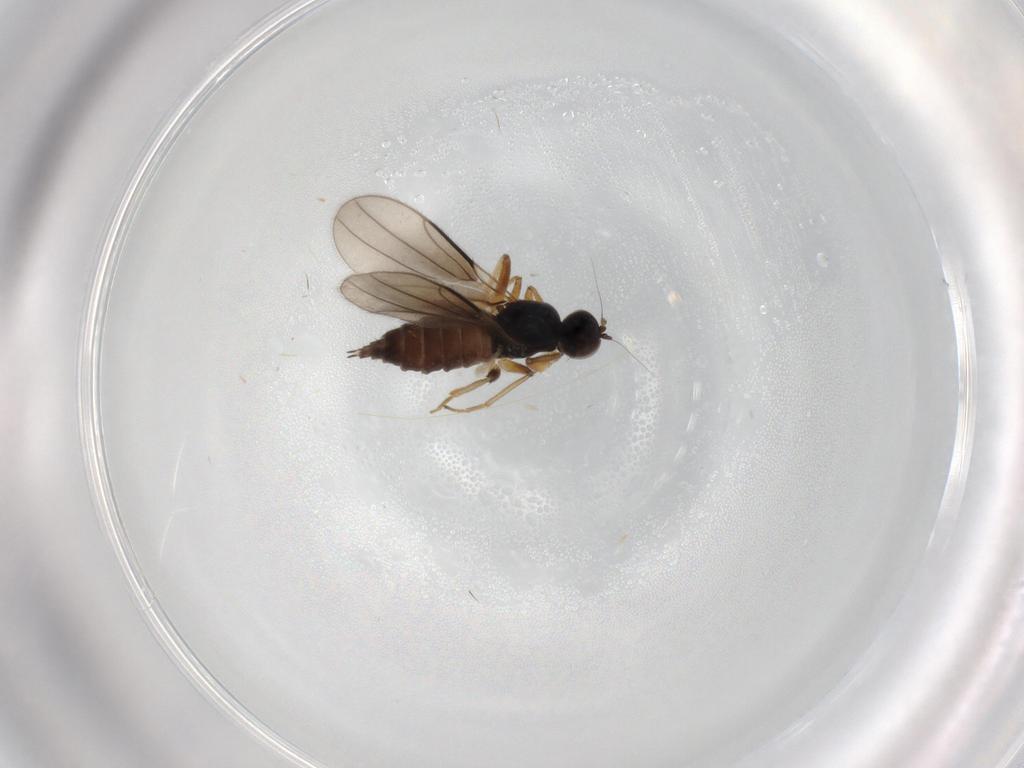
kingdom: Animalia
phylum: Arthropoda
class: Insecta
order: Diptera
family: Hybotidae
